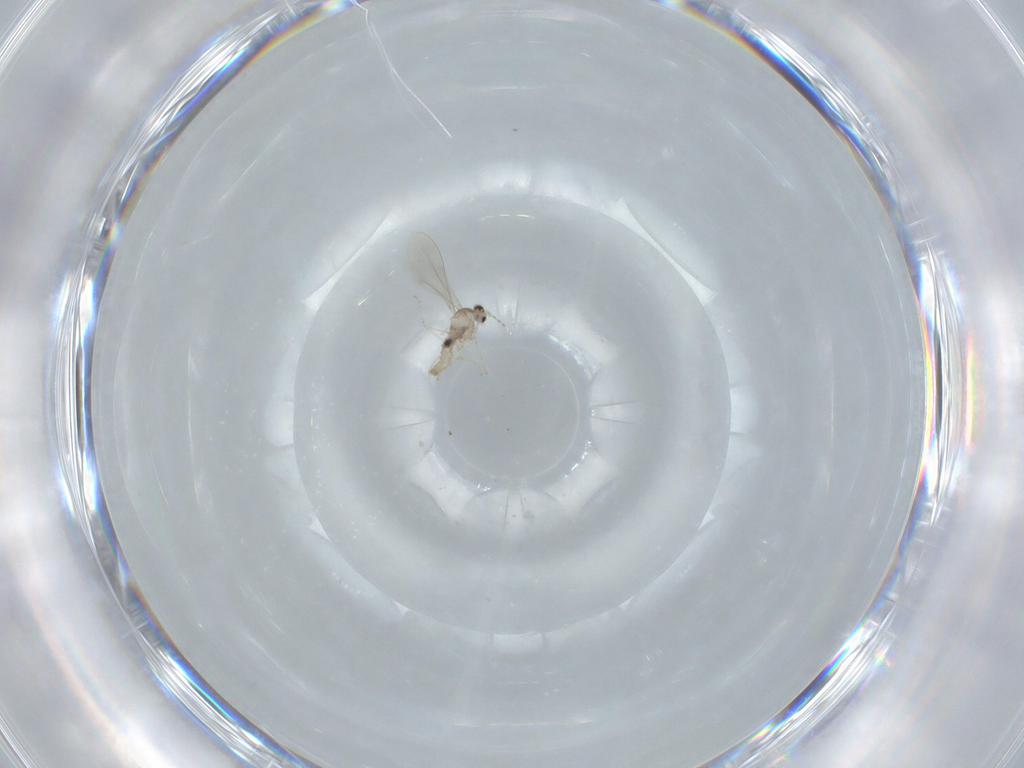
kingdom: Animalia
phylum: Arthropoda
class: Insecta
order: Diptera
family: Cecidomyiidae
